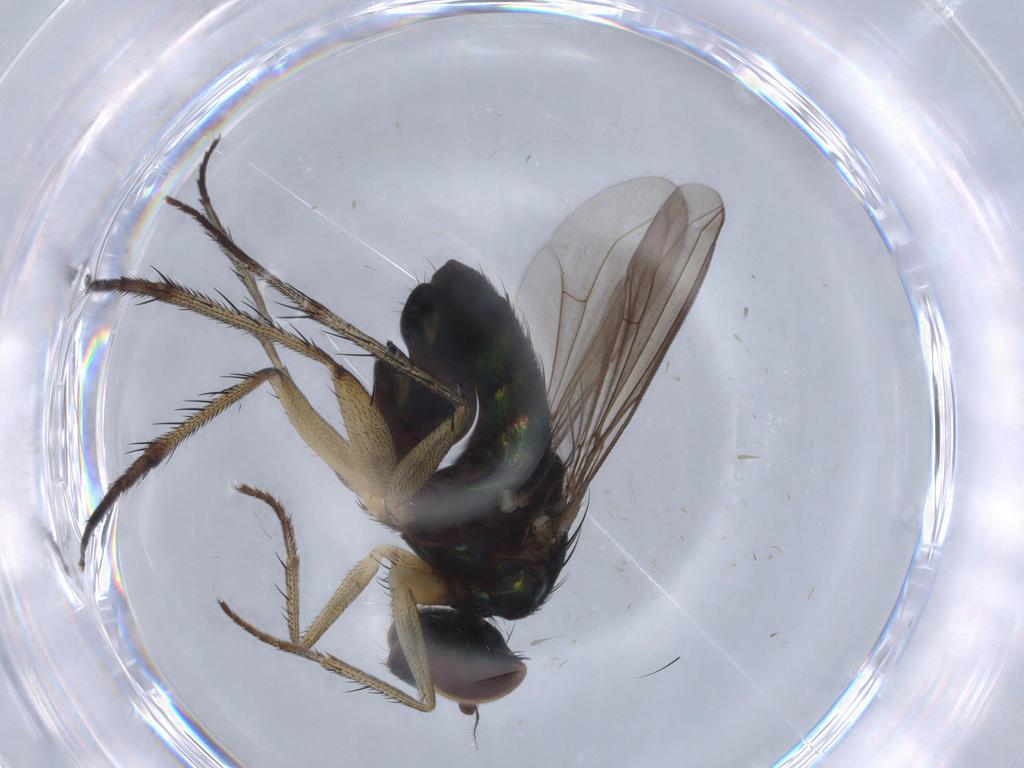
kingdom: Animalia
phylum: Arthropoda
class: Insecta
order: Diptera
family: Dolichopodidae
